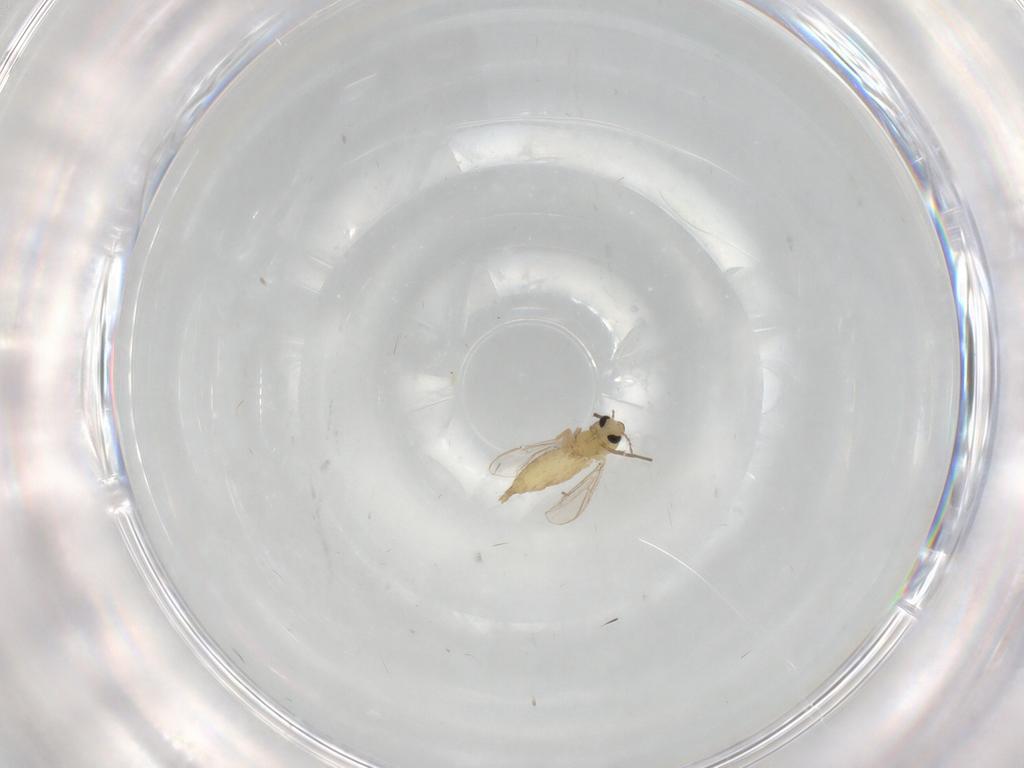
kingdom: Animalia
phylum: Arthropoda
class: Insecta
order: Diptera
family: Chironomidae
